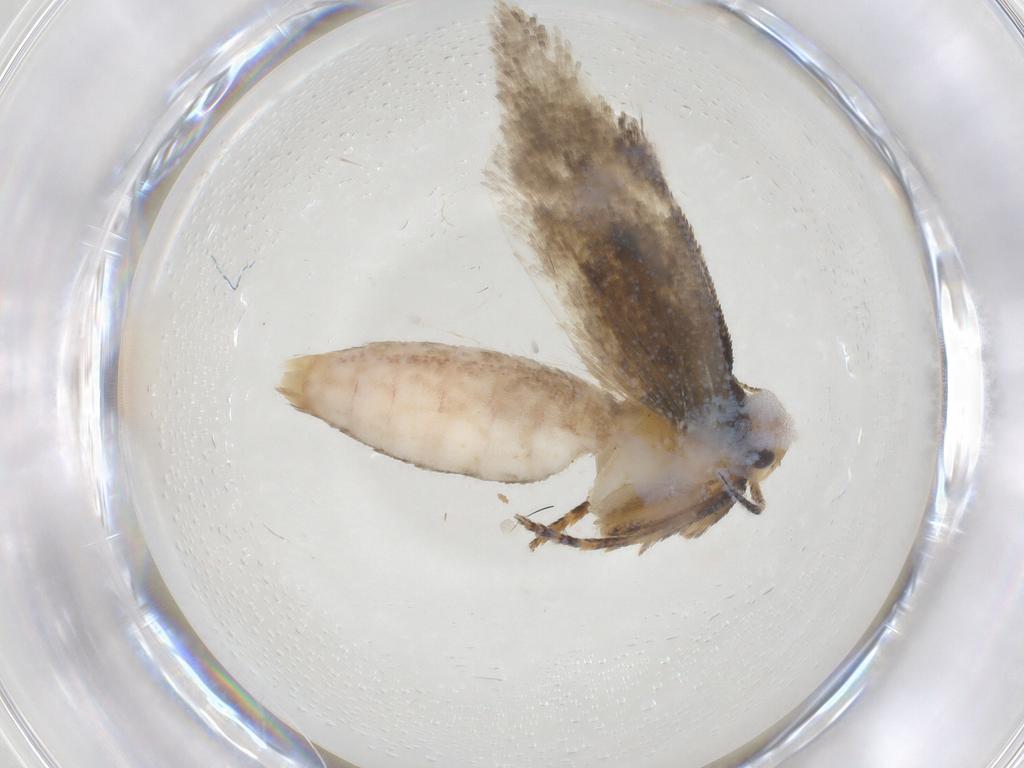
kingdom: Animalia
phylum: Arthropoda
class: Insecta
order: Lepidoptera
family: Gelechiidae
